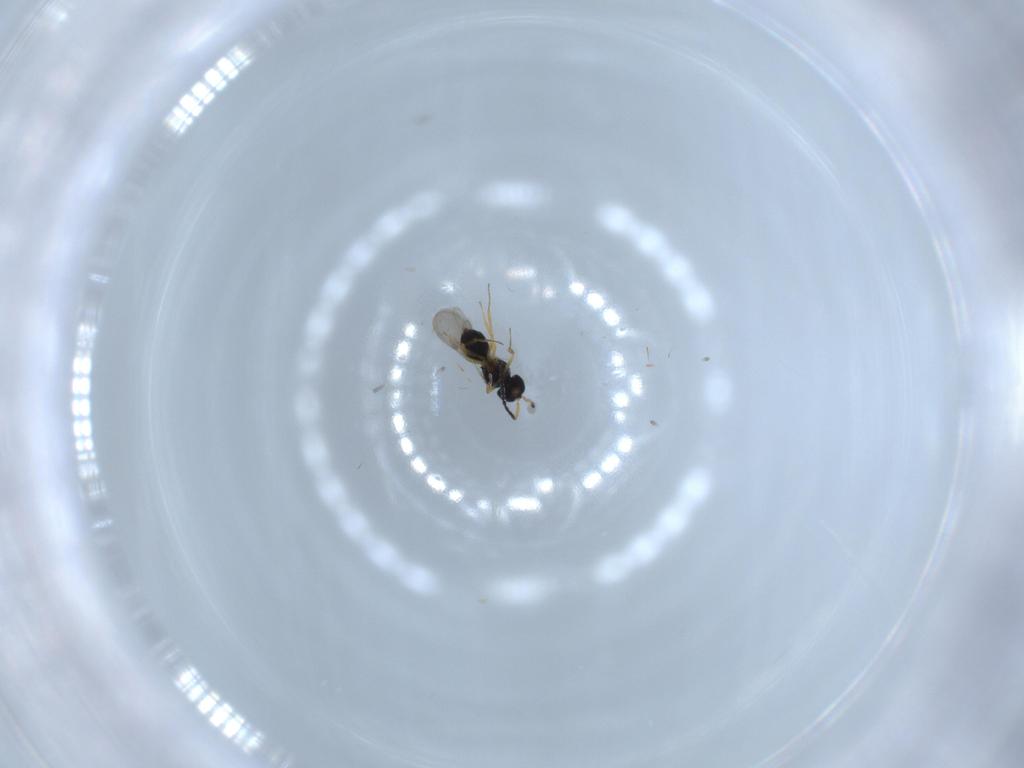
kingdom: Animalia
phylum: Arthropoda
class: Insecta
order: Hymenoptera
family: Scelionidae
